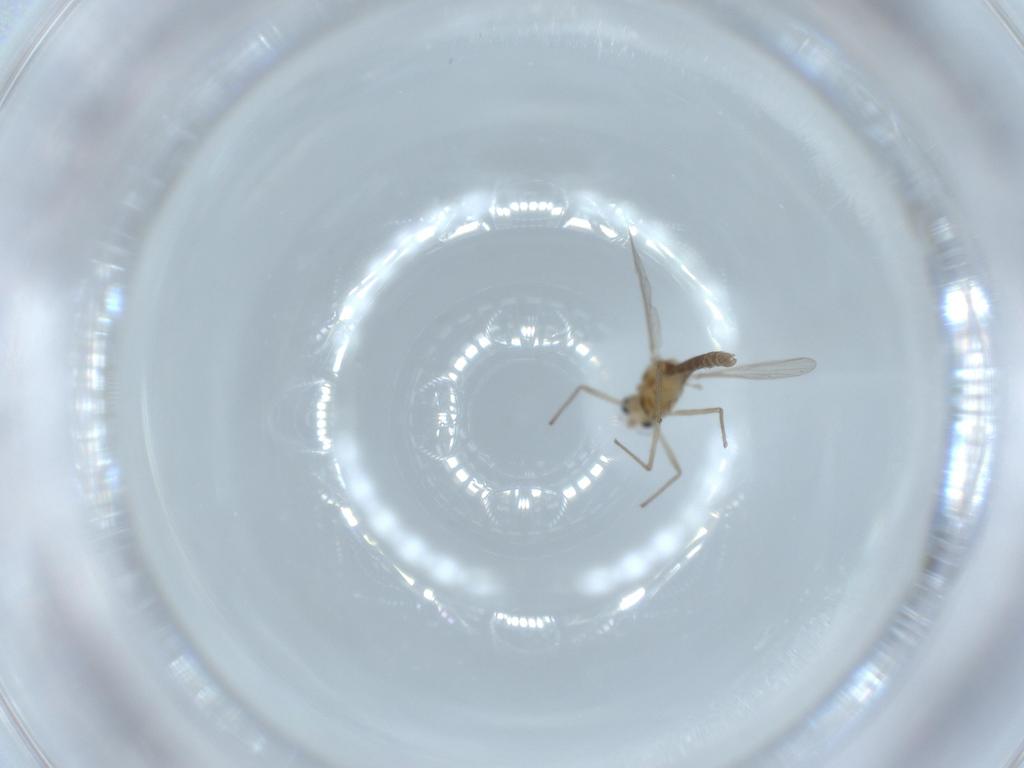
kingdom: Animalia
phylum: Arthropoda
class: Insecta
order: Diptera
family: Chironomidae
